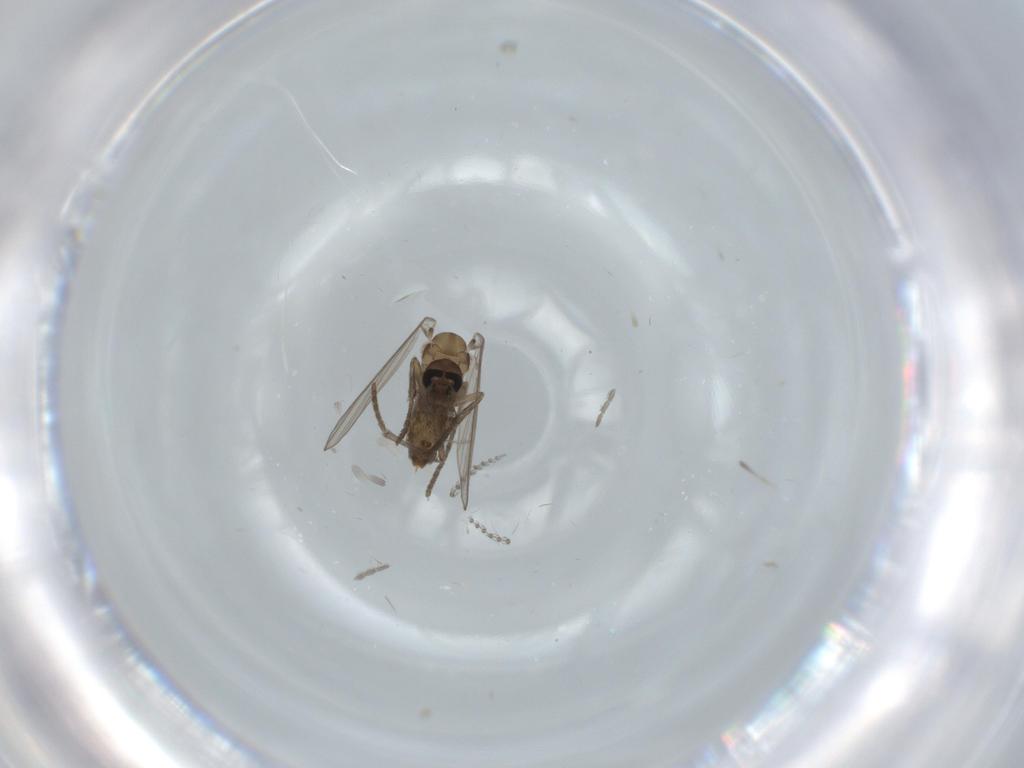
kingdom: Animalia
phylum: Arthropoda
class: Insecta
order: Diptera
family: Psychodidae
